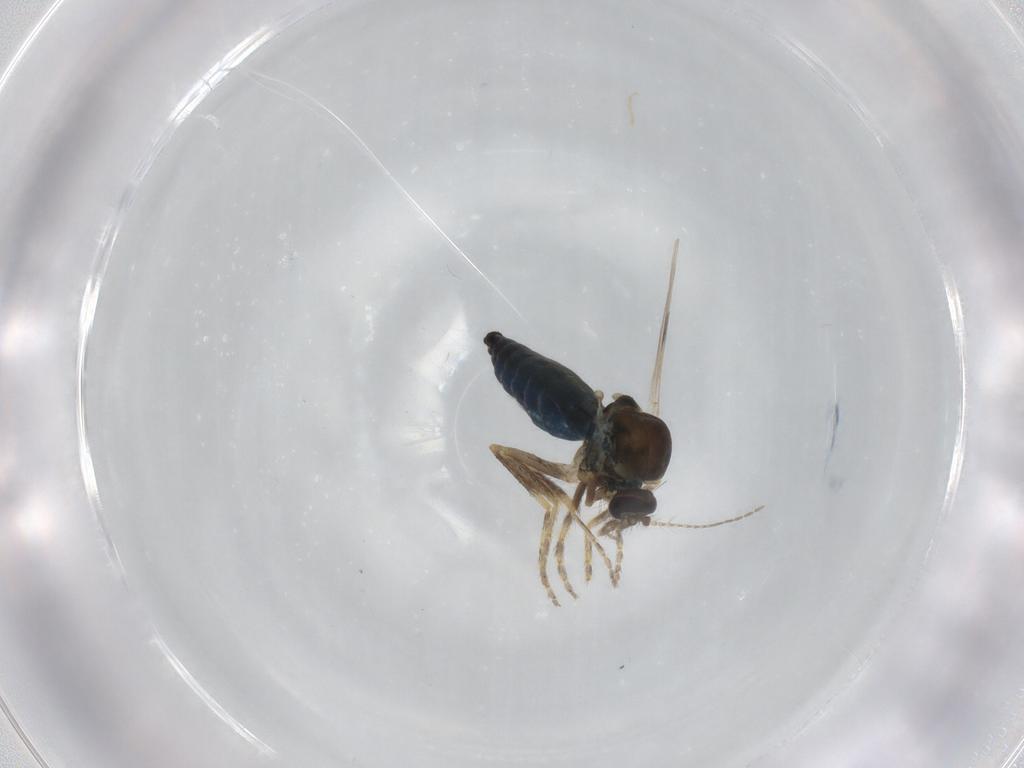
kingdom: Animalia
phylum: Arthropoda
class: Insecta
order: Diptera
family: Ceratopogonidae
